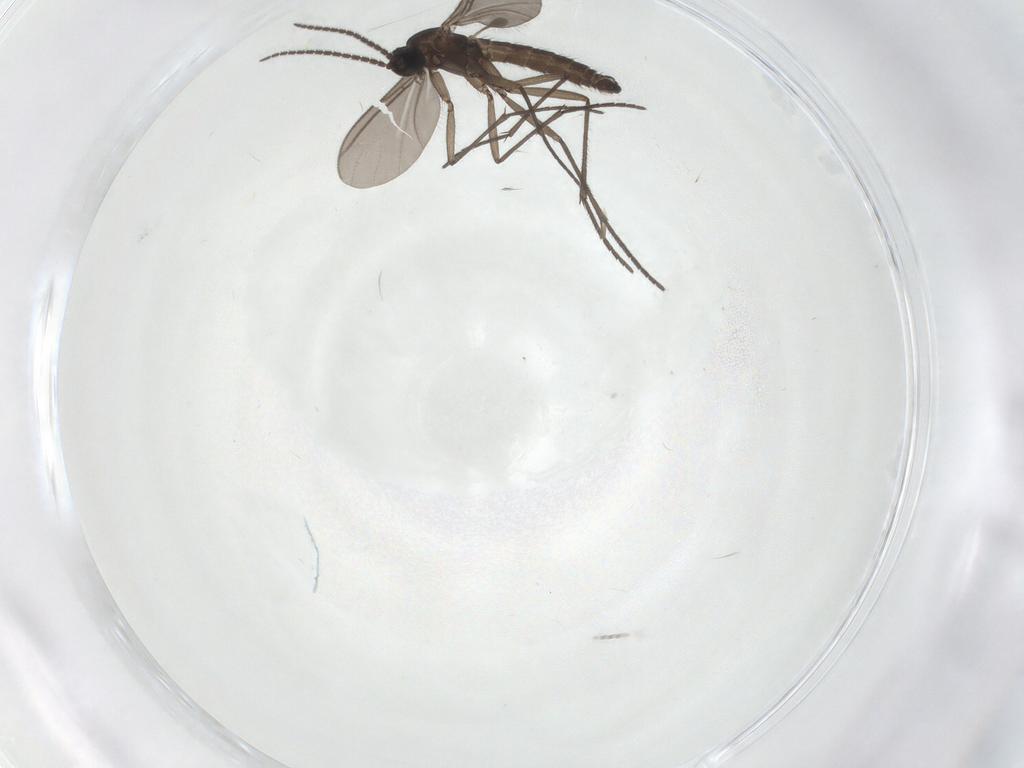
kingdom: Animalia
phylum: Arthropoda
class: Insecta
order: Diptera
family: Sciaridae
